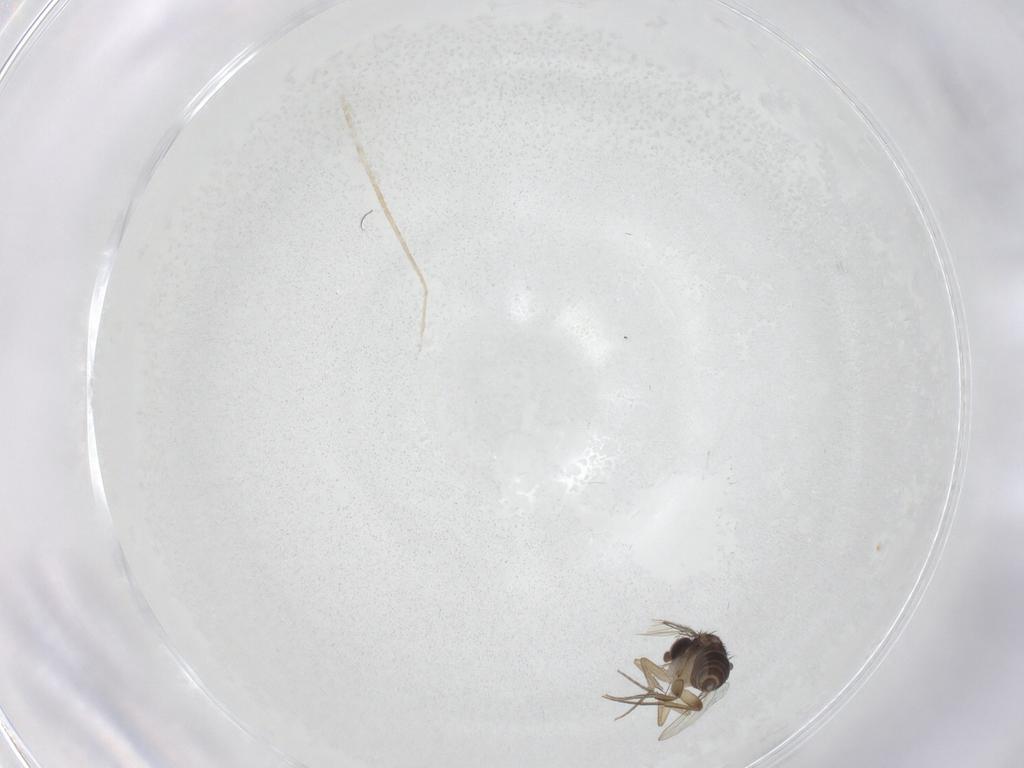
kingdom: Animalia
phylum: Arthropoda
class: Insecta
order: Diptera
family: Phoridae
